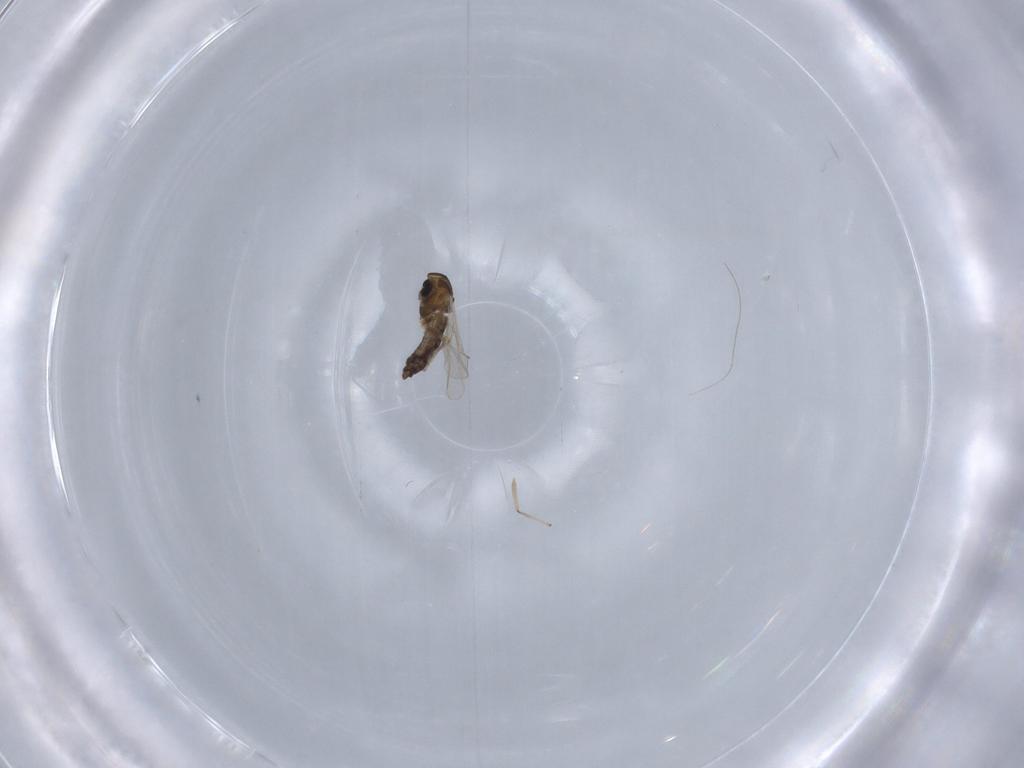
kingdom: Animalia
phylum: Arthropoda
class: Insecta
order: Diptera
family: Chironomidae
